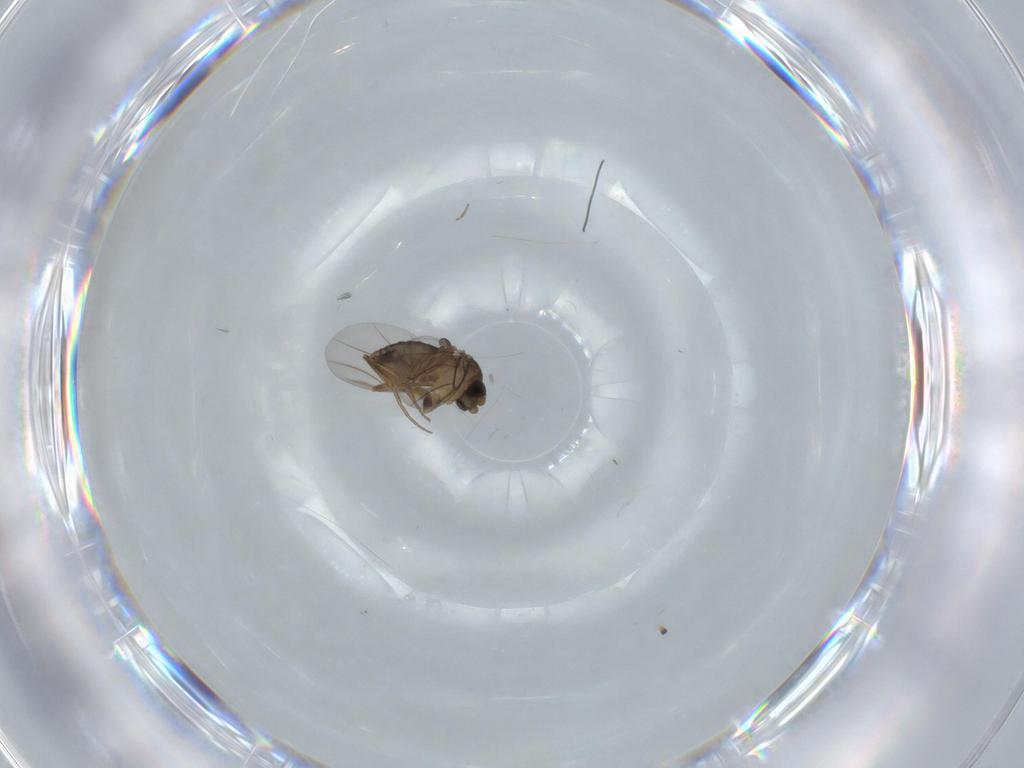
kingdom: Animalia
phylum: Arthropoda
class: Insecta
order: Diptera
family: Phoridae
